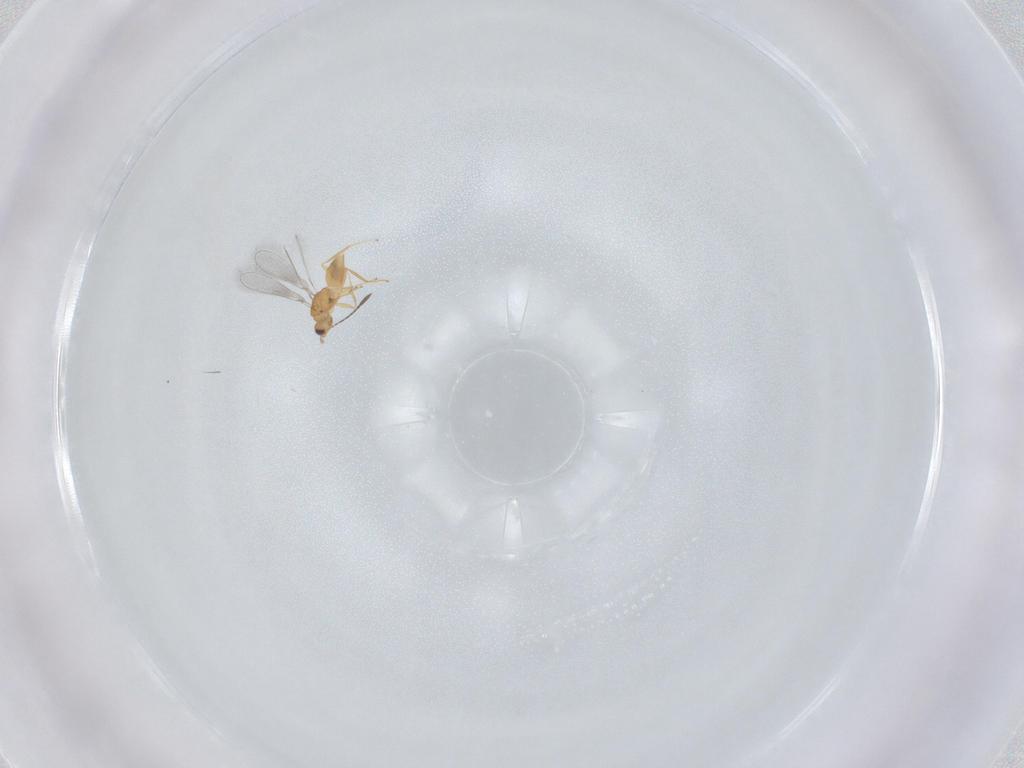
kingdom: Animalia
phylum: Arthropoda
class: Insecta
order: Hymenoptera
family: Mymaridae
